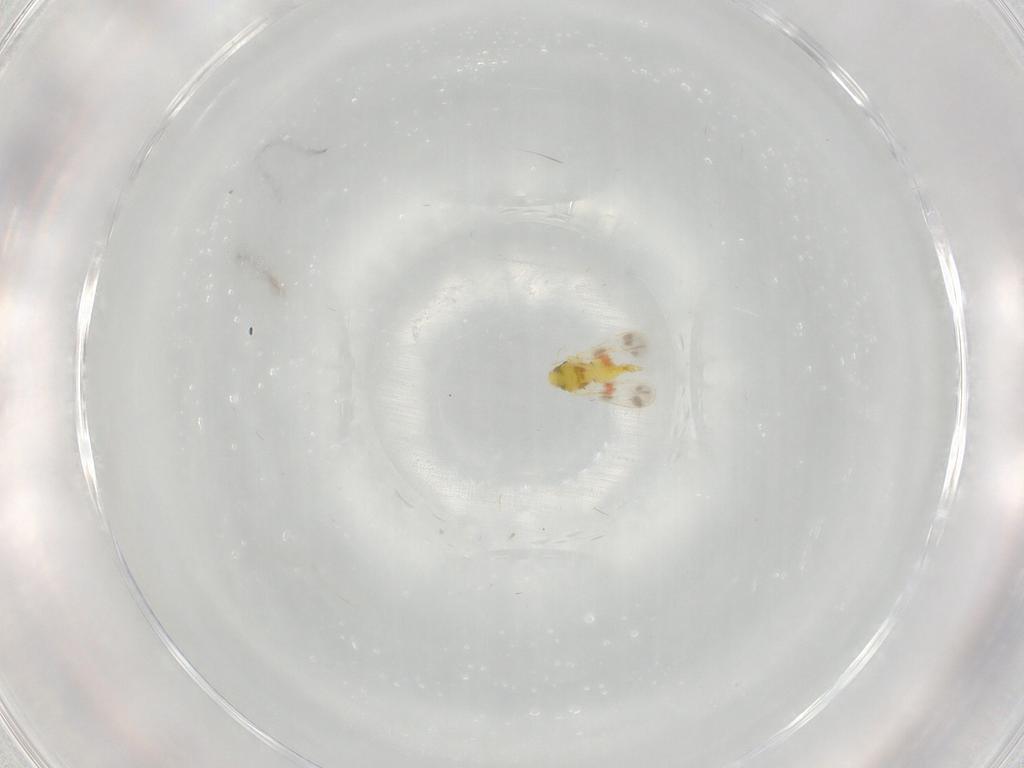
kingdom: Animalia
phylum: Arthropoda
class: Insecta
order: Hemiptera
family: Aleyrodidae
